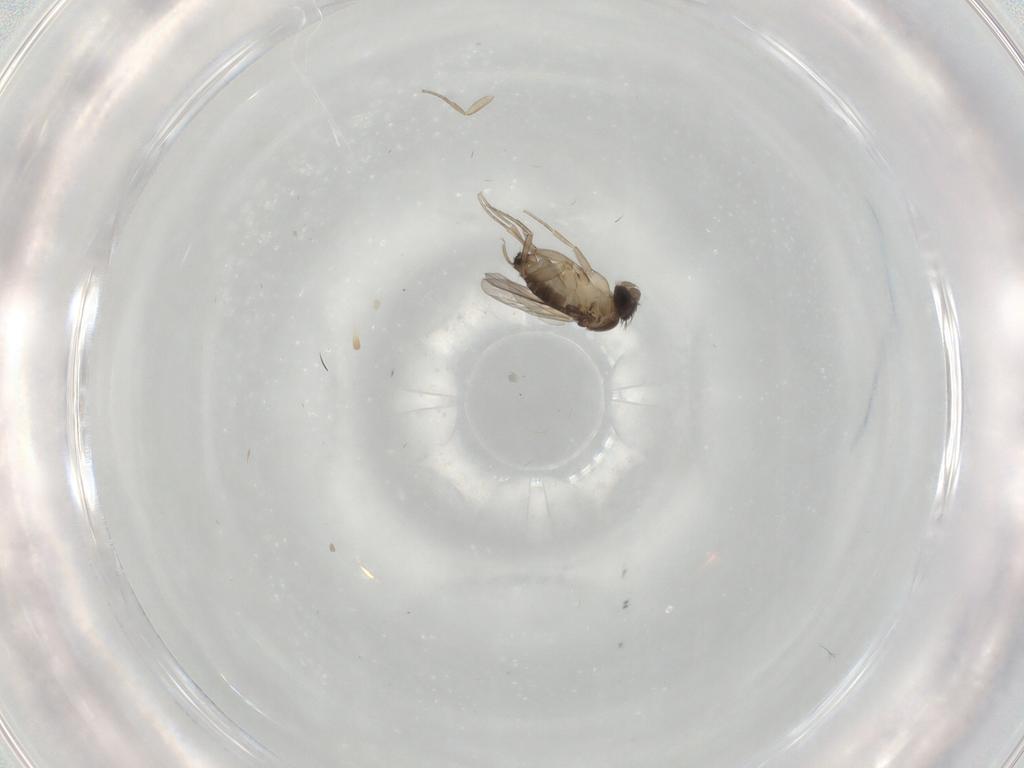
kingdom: Animalia
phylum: Arthropoda
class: Insecta
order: Diptera
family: Phoridae
